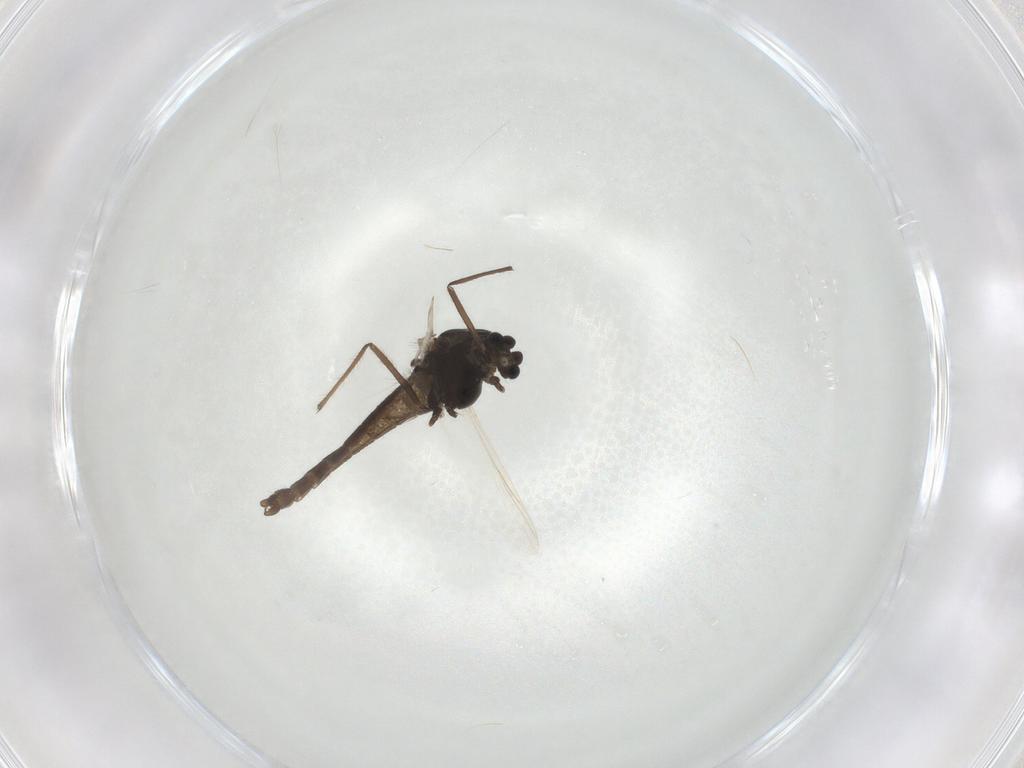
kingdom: Animalia
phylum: Arthropoda
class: Insecta
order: Diptera
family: Chironomidae
